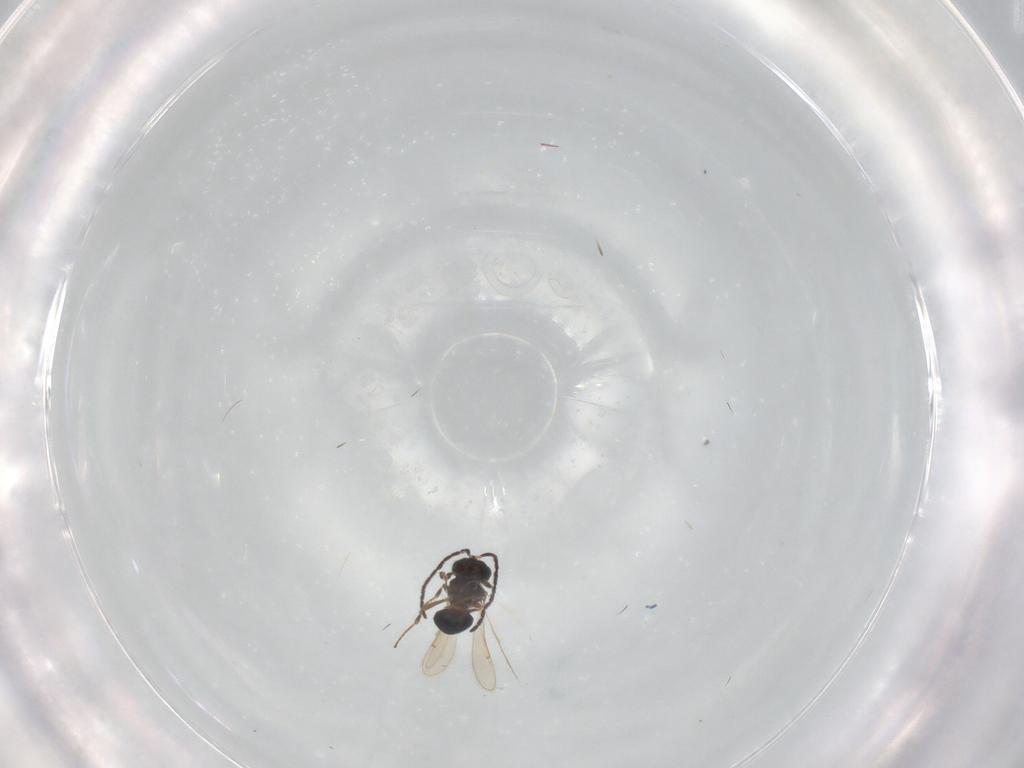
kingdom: Animalia
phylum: Arthropoda
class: Insecta
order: Hymenoptera
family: Scelionidae
